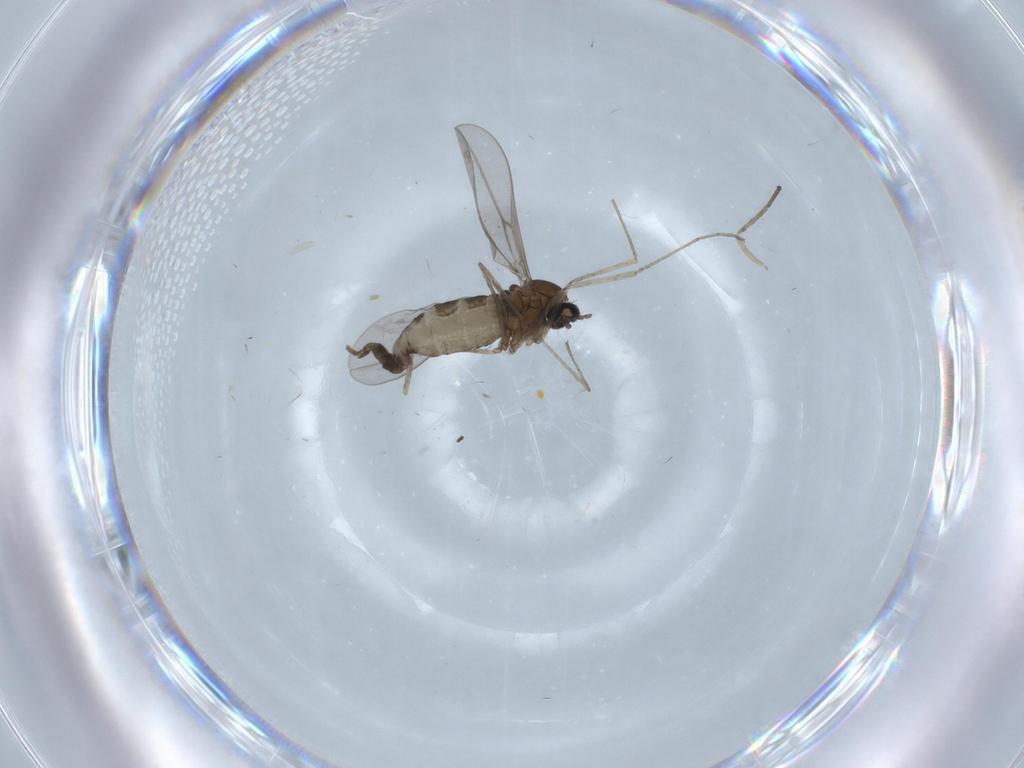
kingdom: Animalia
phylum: Arthropoda
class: Insecta
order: Diptera
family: Cecidomyiidae
